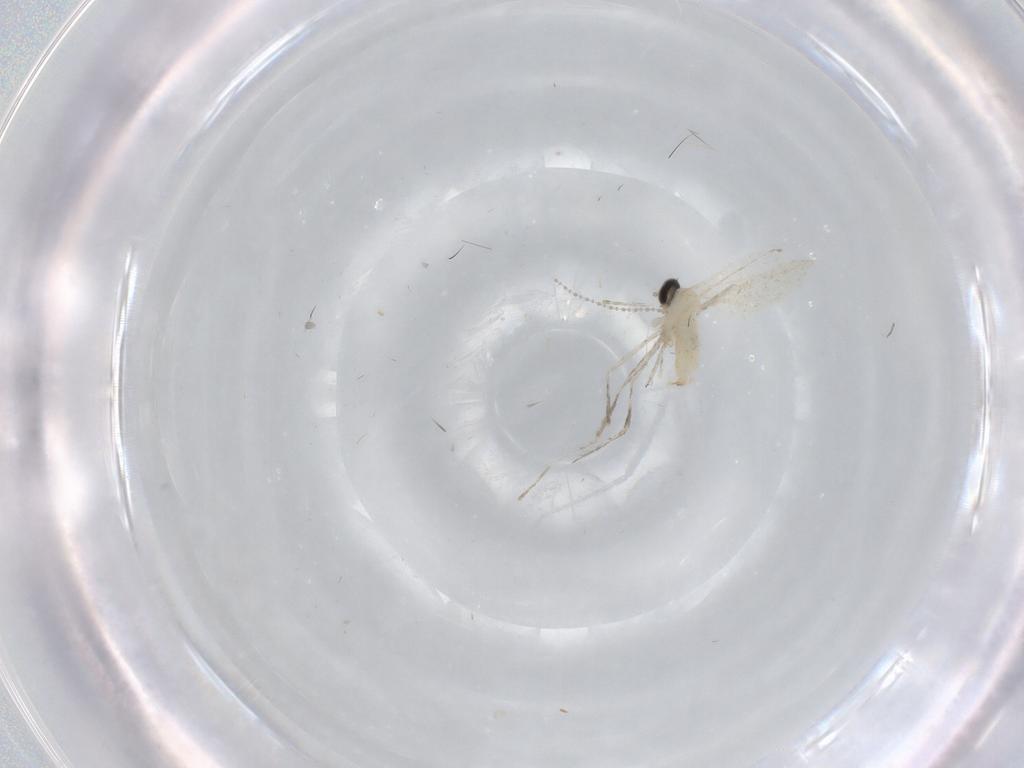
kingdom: Animalia
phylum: Arthropoda
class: Insecta
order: Diptera
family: Cecidomyiidae
